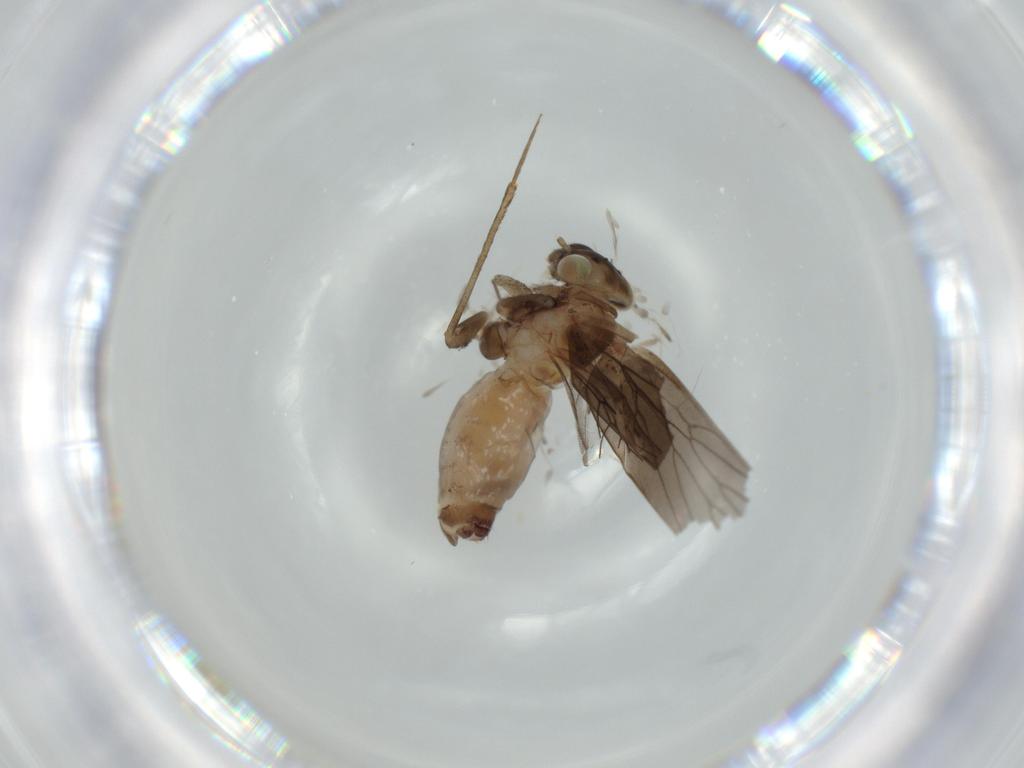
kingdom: Animalia
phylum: Arthropoda
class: Insecta
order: Psocodea
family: Lepidopsocidae
